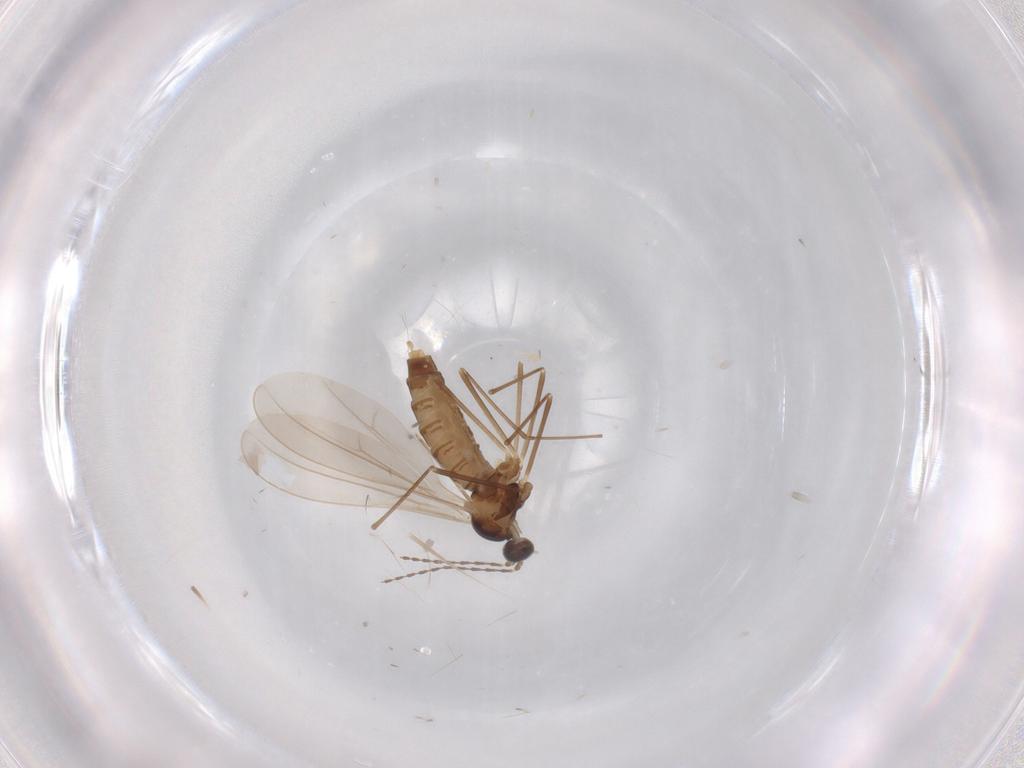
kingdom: Animalia
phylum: Arthropoda
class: Insecta
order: Diptera
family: Cecidomyiidae
